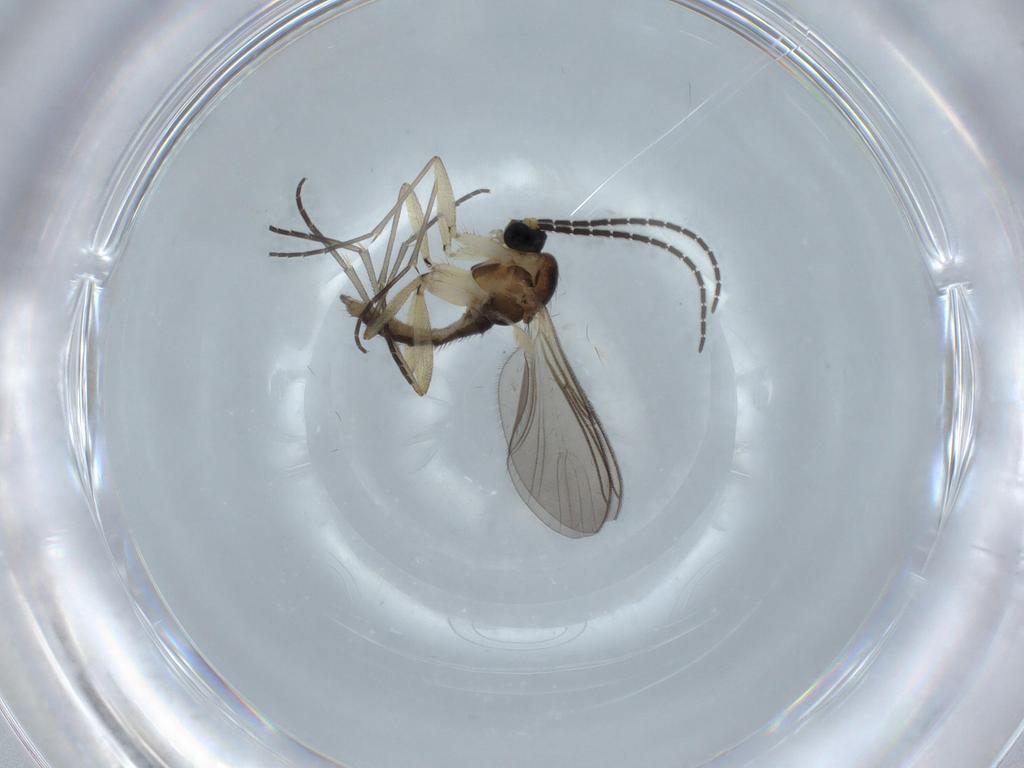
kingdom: Animalia
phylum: Arthropoda
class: Insecta
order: Diptera
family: Sciaridae
